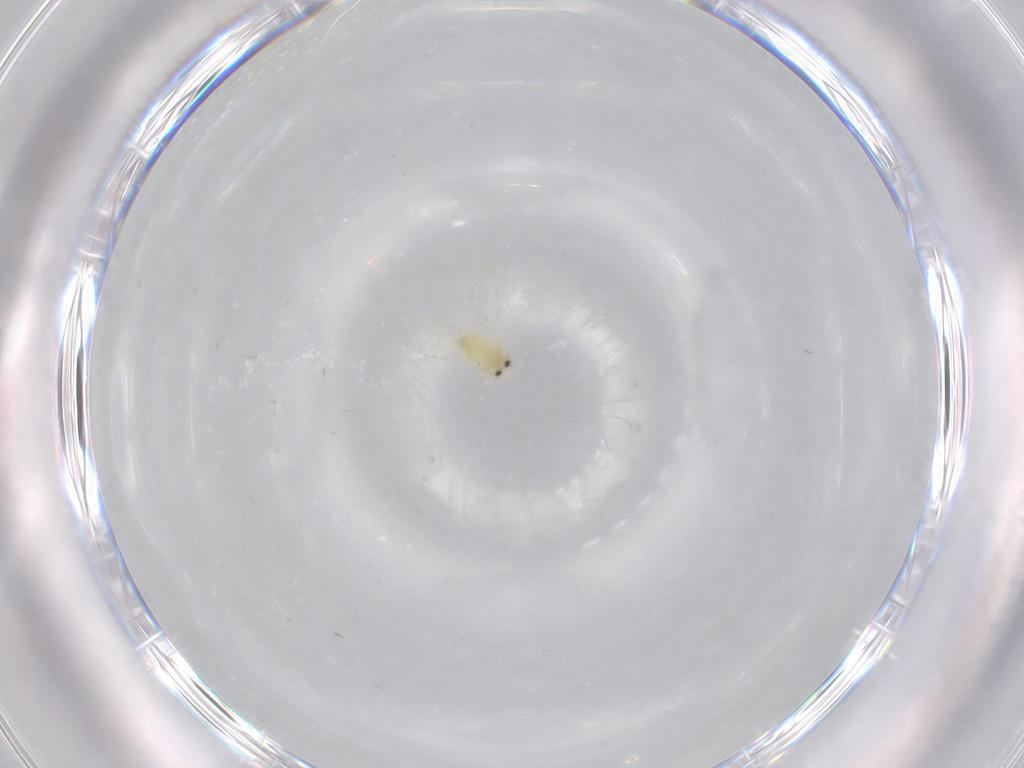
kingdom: Animalia
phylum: Arthropoda
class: Insecta
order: Hemiptera
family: Aleyrodidae
